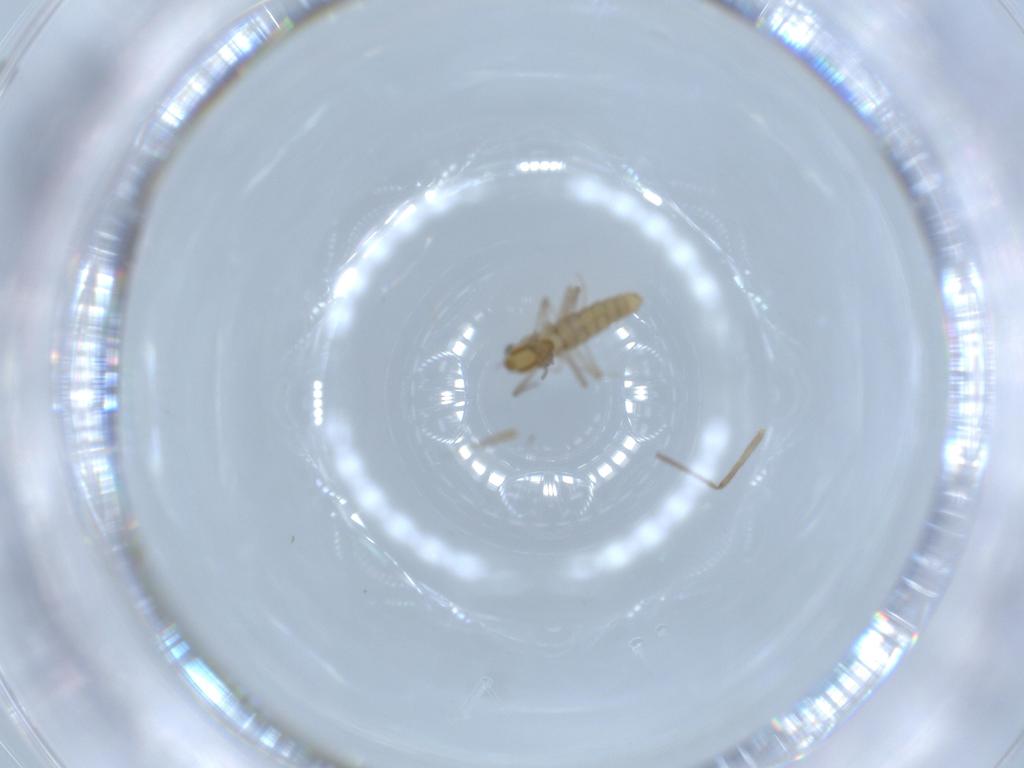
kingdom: Animalia
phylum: Arthropoda
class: Insecta
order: Diptera
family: Chironomidae
